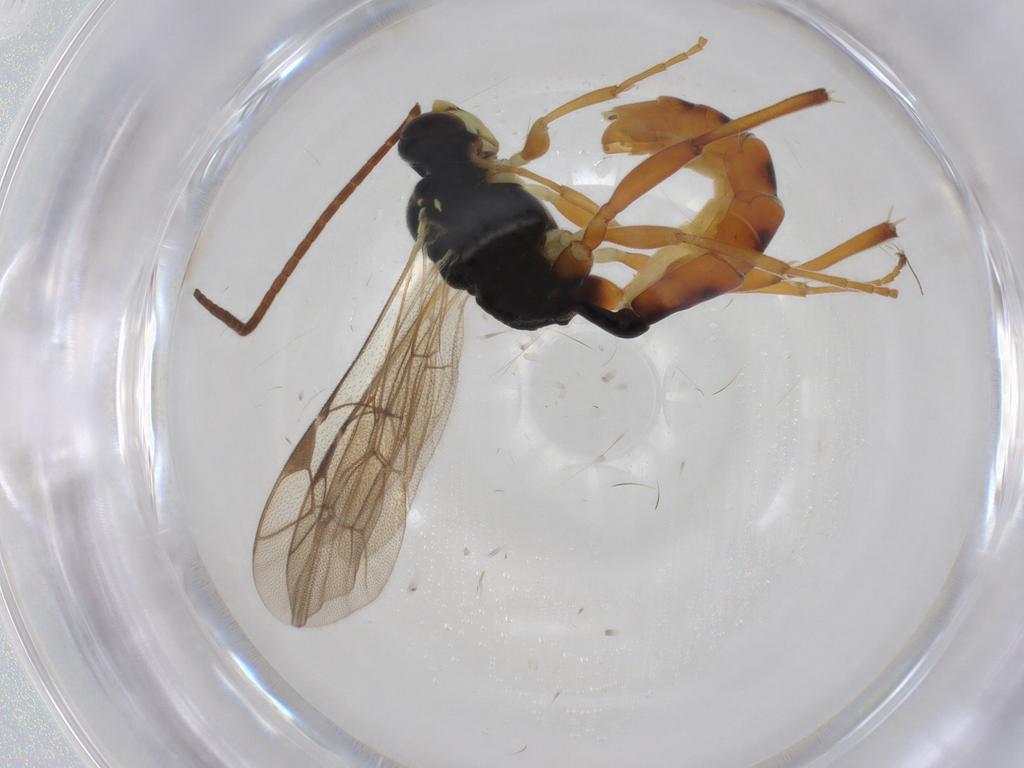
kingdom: Animalia
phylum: Arthropoda
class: Insecta
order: Hymenoptera
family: Braconidae
